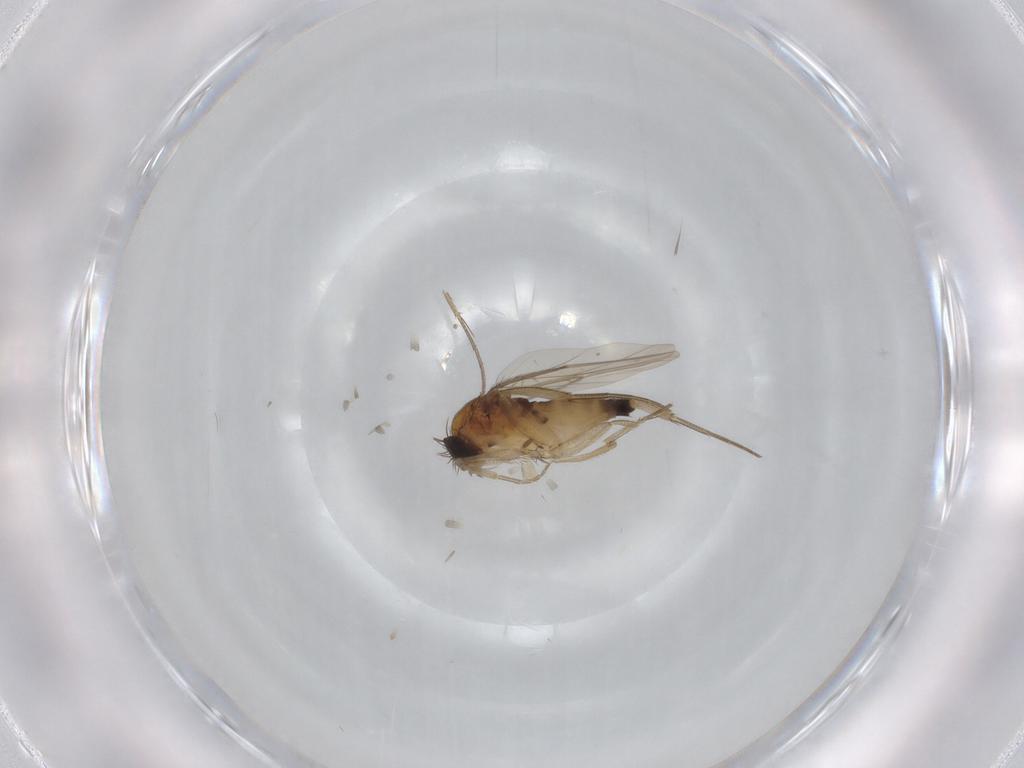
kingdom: Animalia
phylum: Arthropoda
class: Insecta
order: Diptera
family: Phoridae
